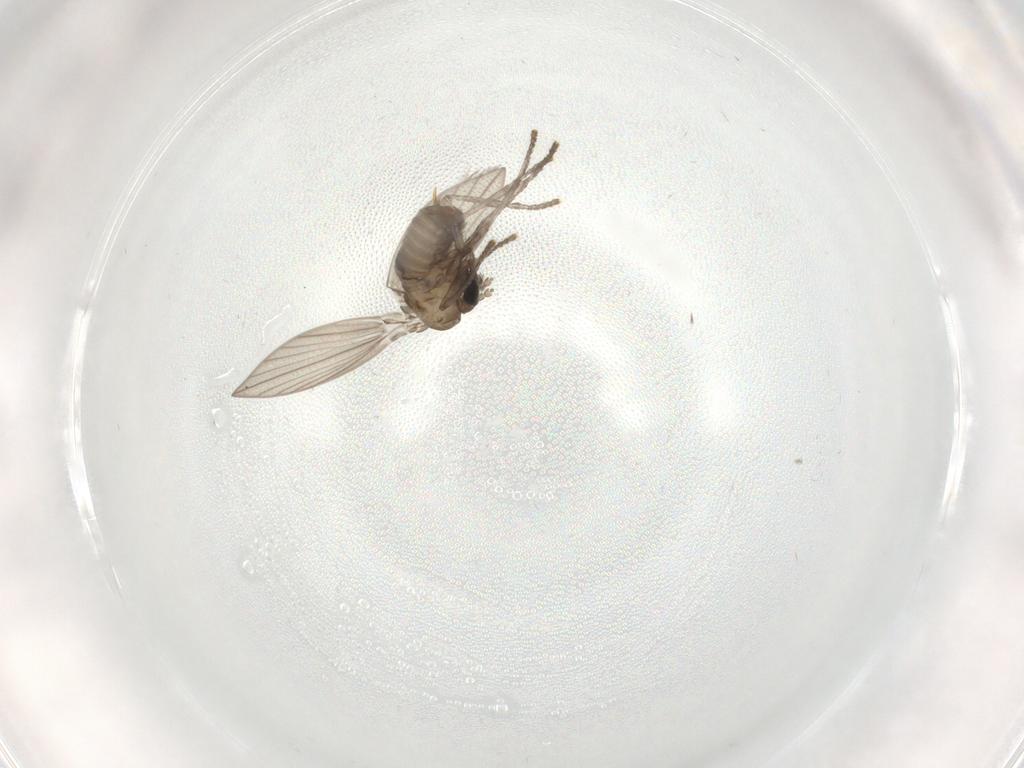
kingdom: Animalia
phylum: Arthropoda
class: Insecta
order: Diptera
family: Psychodidae
